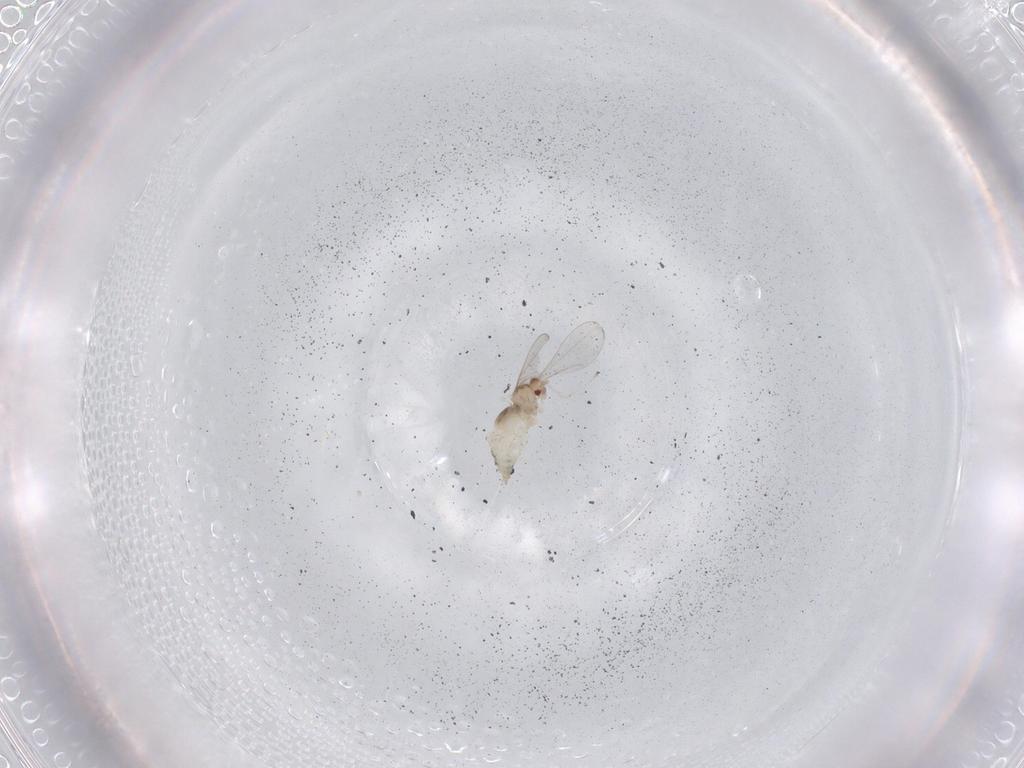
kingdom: Animalia
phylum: Arthropoda
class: Insecta
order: Diptera
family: Cecidomyiidae
